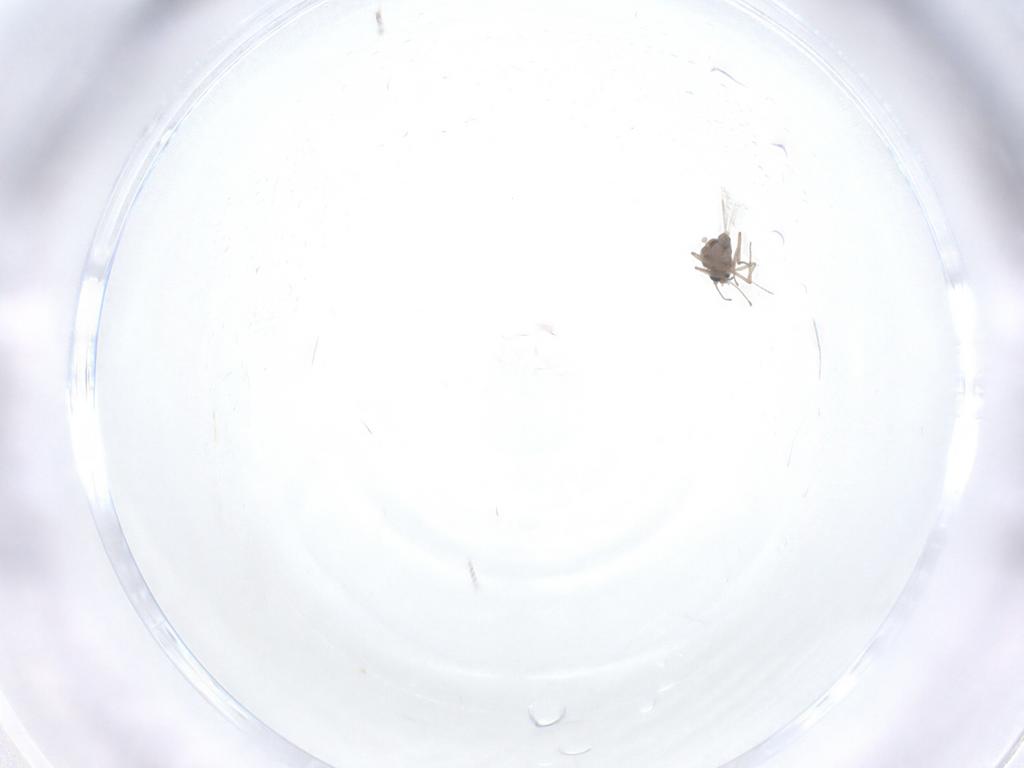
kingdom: Animalia
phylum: Arthropoda
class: Insecta
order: Diptera
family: Ceratopogonidae
